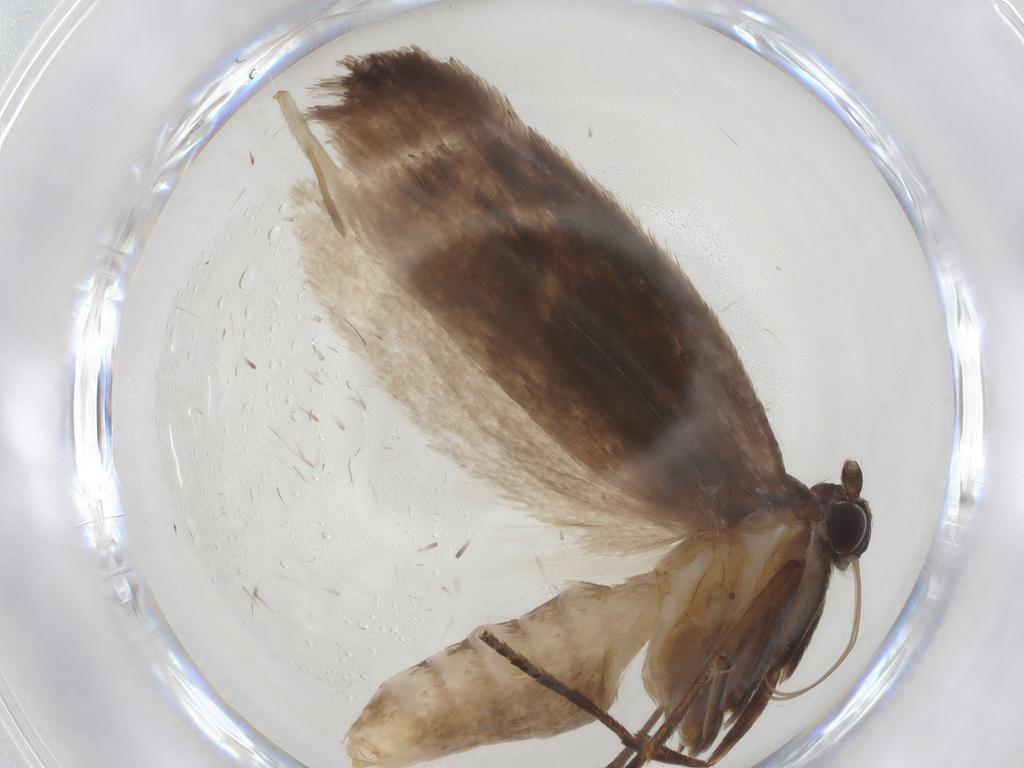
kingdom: Animalia
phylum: Arthropoda
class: Insecta
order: Lepidoptera
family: Roeslerstammiidae
